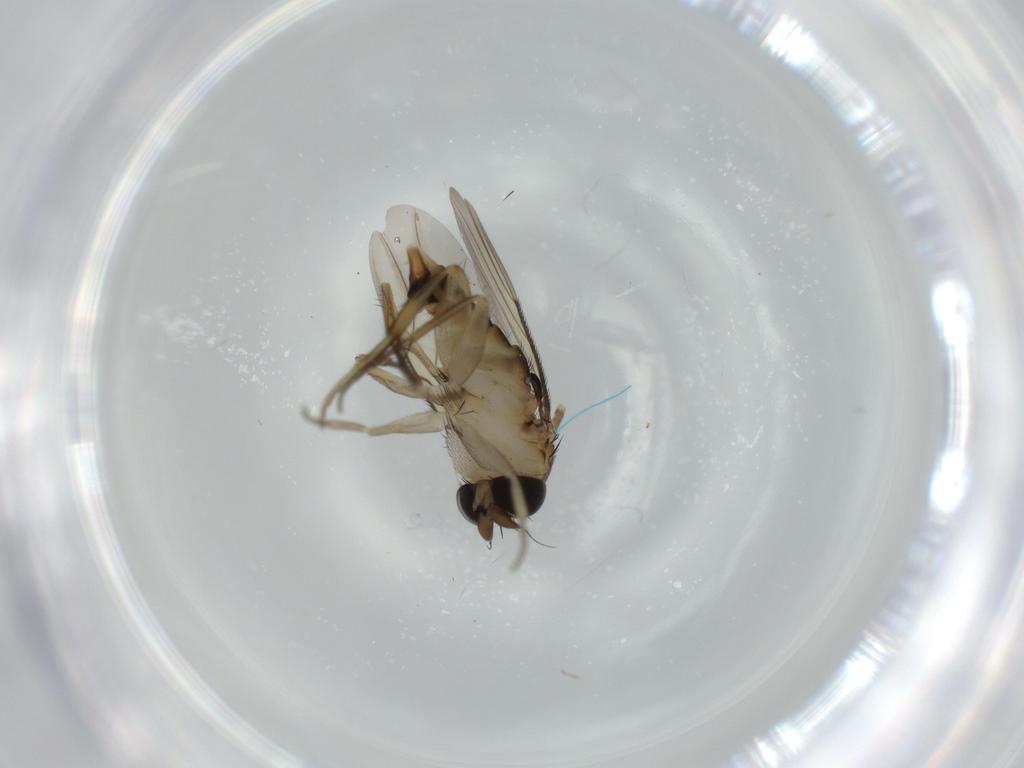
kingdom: Animalia
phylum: Arthropoda
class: Insecta
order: Diptera
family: Phoridae
